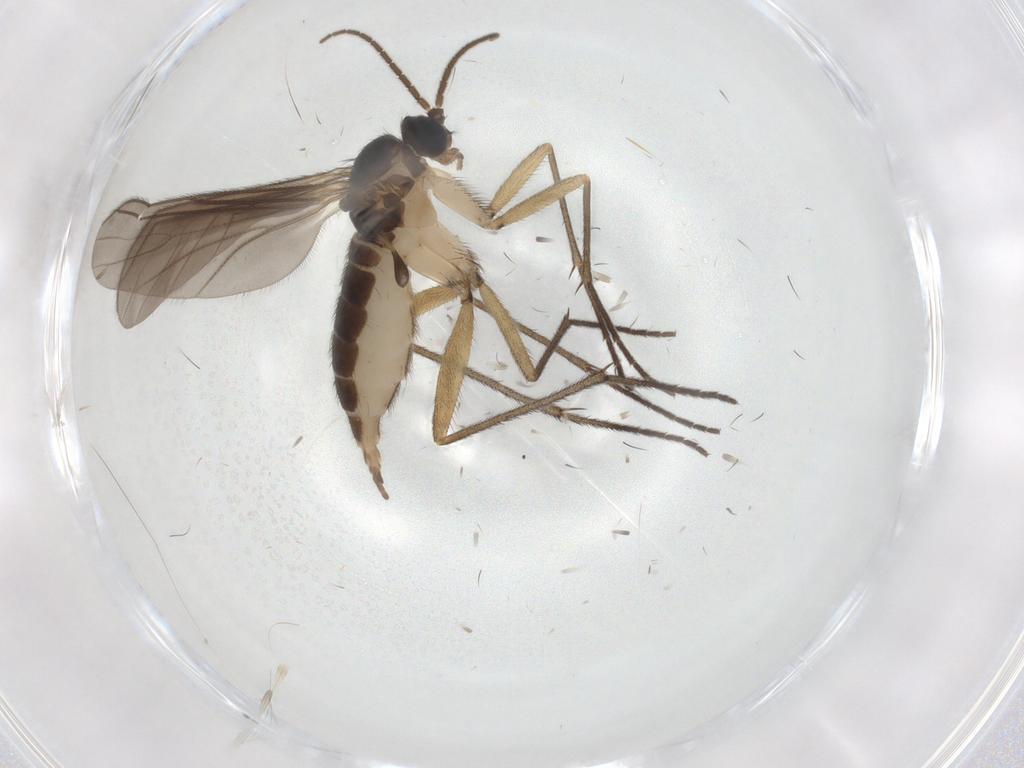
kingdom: Animalia
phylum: Arthropoda
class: Insecta
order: Diptera
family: Sciaridae
